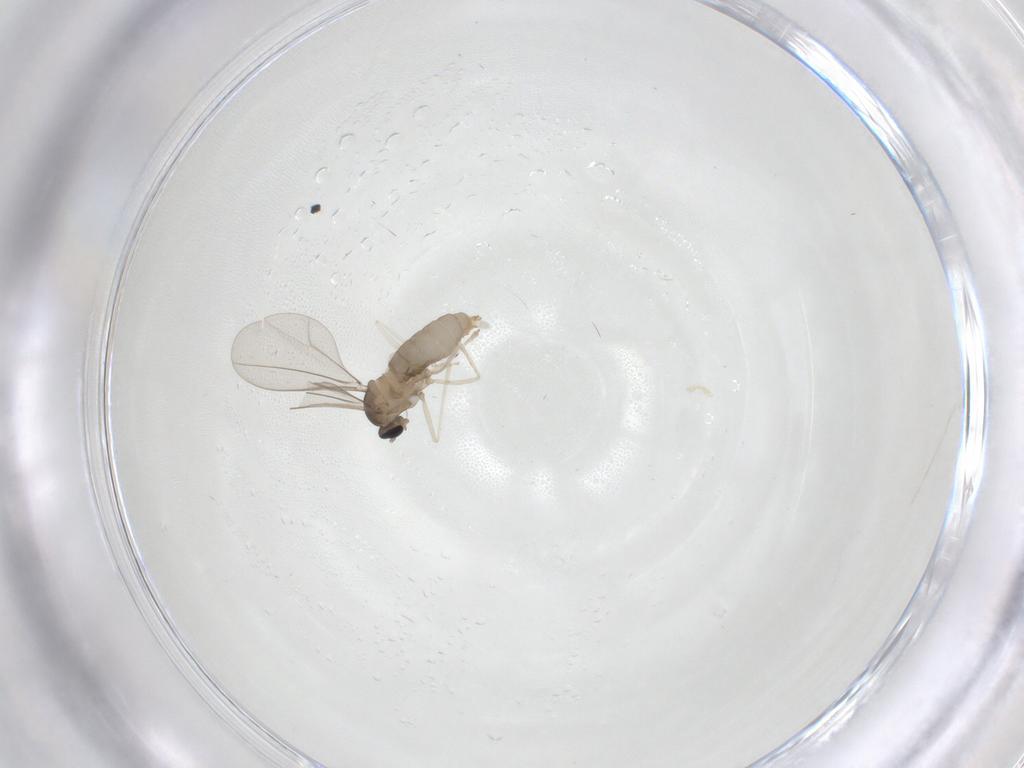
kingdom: Animalia
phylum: Arthropoda
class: Insecta
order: Diptera
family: Cecidomyiidae
